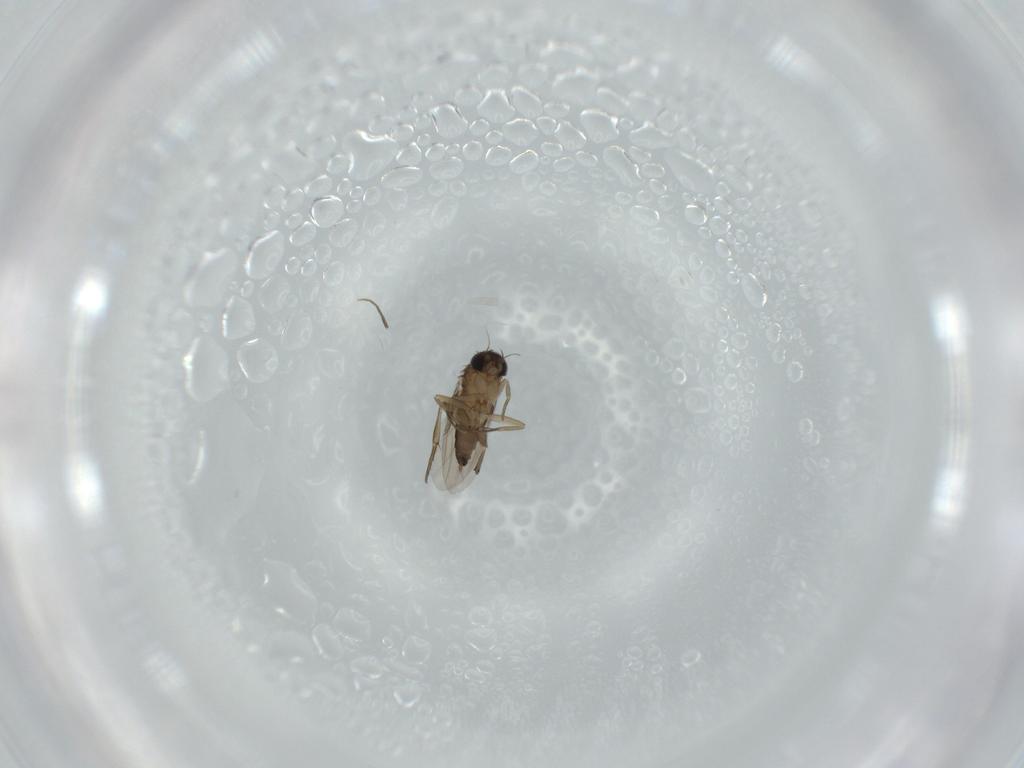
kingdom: Animalia
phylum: Arthropoda
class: Insecta
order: Diptera
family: Phoridae
